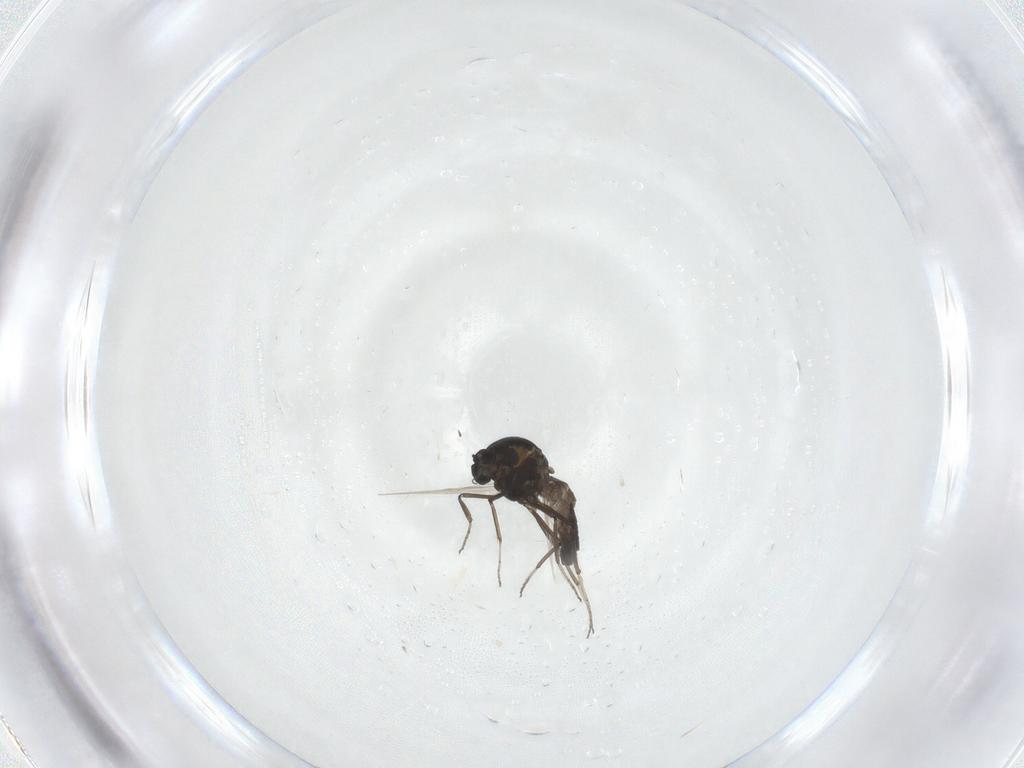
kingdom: Animalia
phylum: Arthropoda
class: Insecta
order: Diptera
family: Ceratopogonidae
